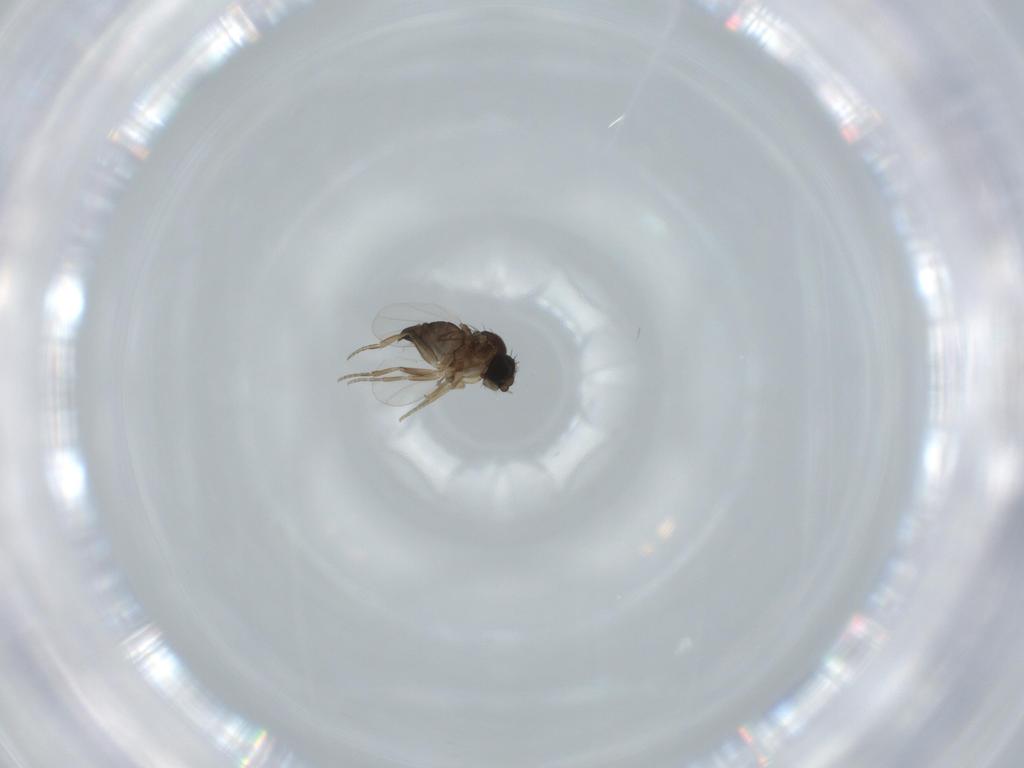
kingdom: Animalia
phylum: Arthropoda
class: Insecta
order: Diptera
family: Phoridae
